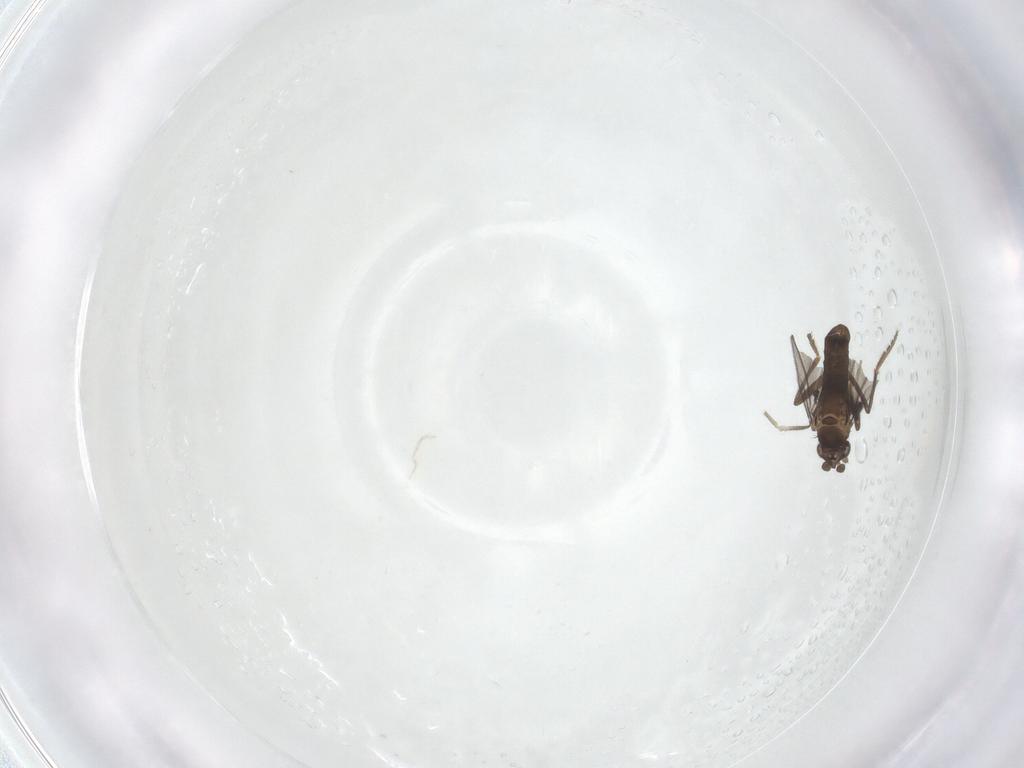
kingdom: Animalia
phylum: Arthropoda
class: Insecta
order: Diptera
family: Phoridae
